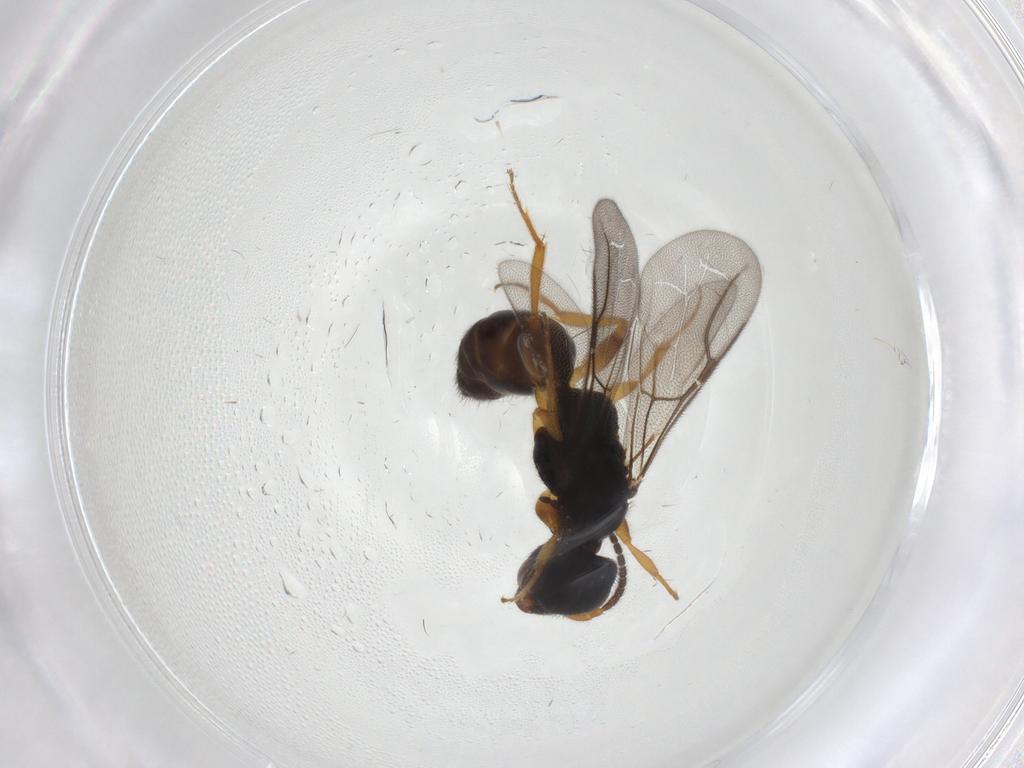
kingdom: Animalia
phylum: Arthropoda
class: Insecta
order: Hymenoptera
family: Bethylidae
